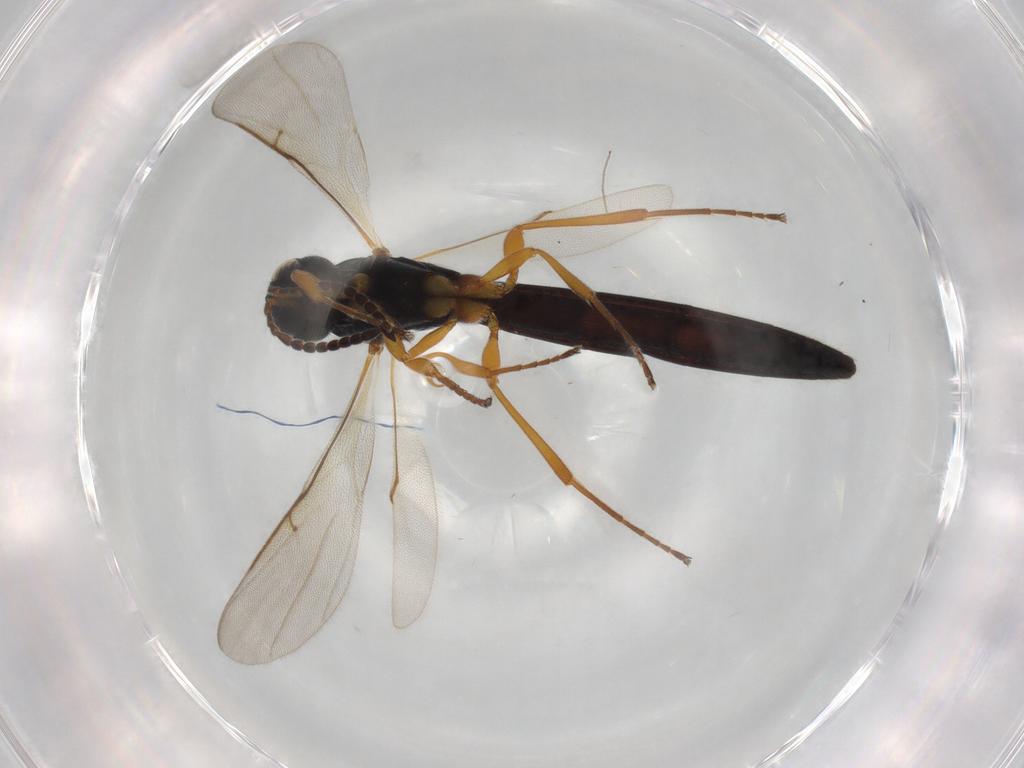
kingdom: Animalia
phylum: Arthropoda
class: Insecta
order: Hymenoptera
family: Scelionidae
